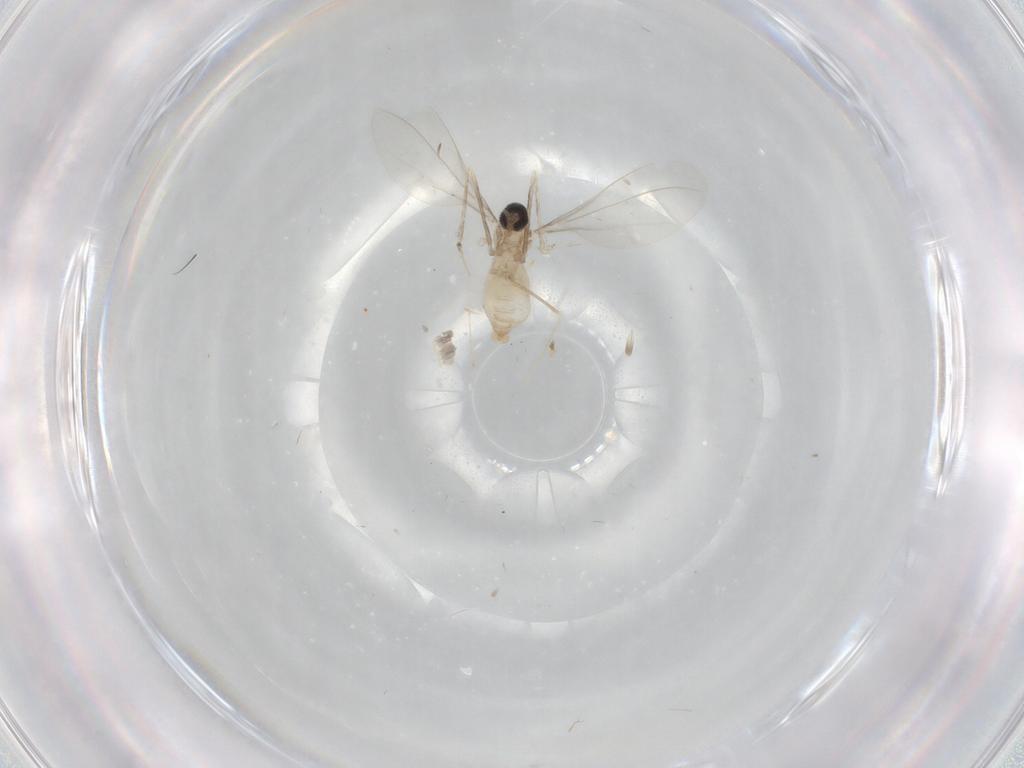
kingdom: Animalia
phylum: Arthropoda
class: Insecta
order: Diptera
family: Cecidomyiidae
